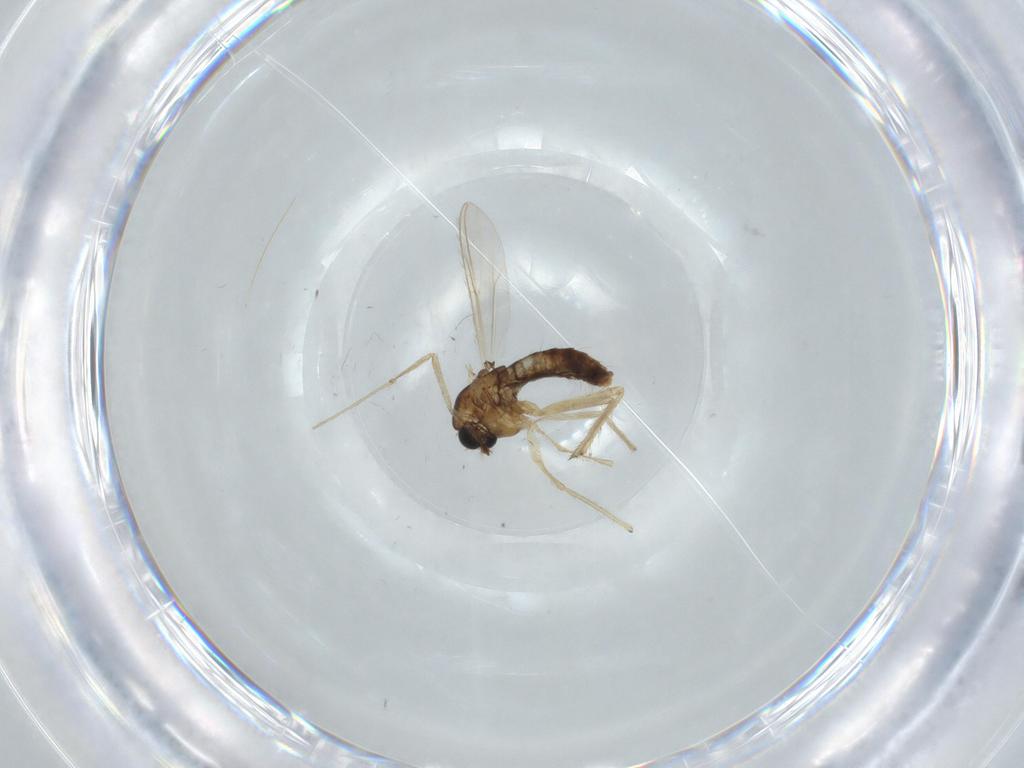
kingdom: Animalia
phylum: Arthropoda
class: Insecta
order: Diptera
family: Chironomidae
